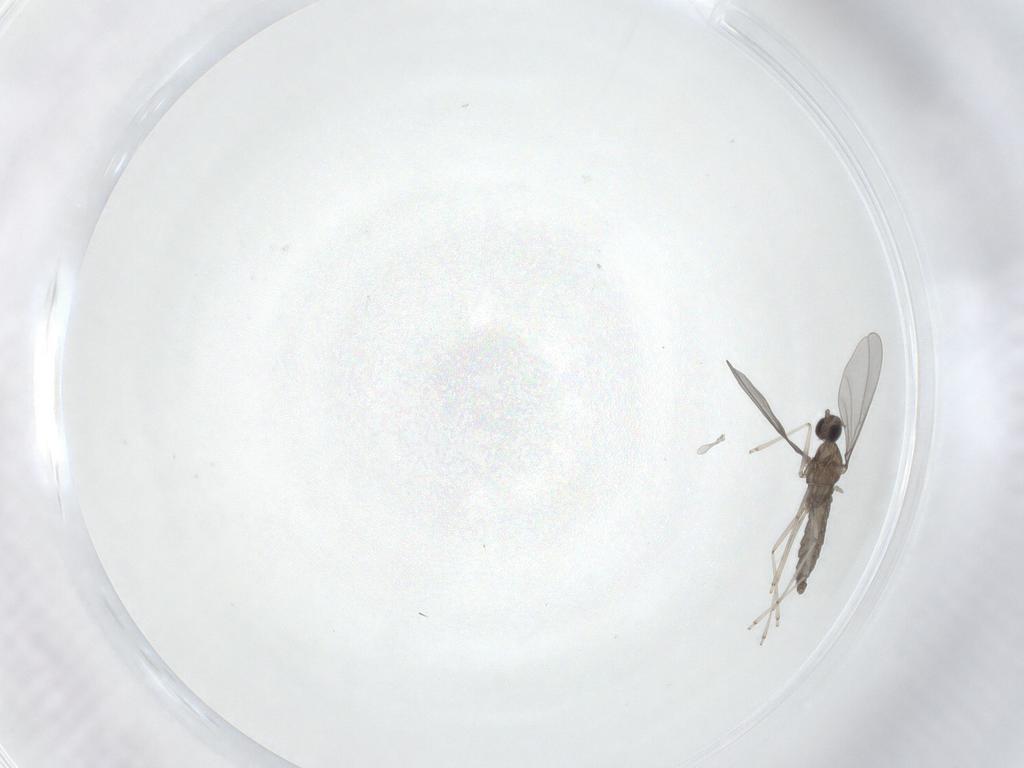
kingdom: Animalia
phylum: Arthropoda
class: Insecta
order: Diptera
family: Cecidomyiidae
